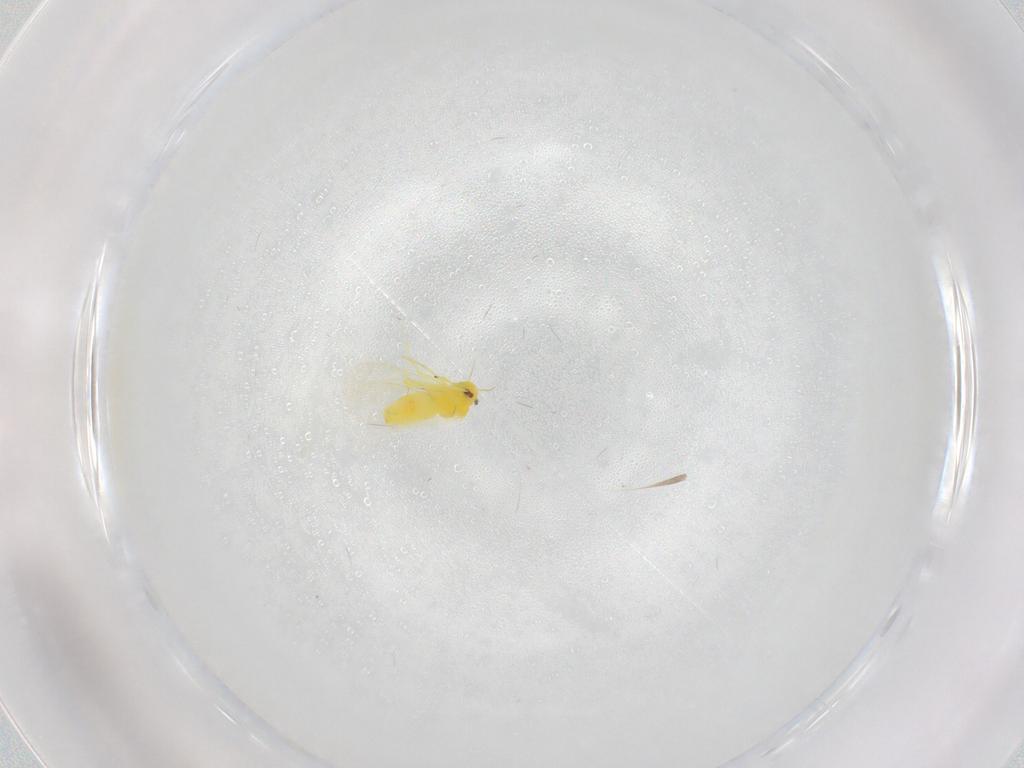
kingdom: Animalia
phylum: Arthropoda
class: Insecta
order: Hemiptera
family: Aleyrodidae
